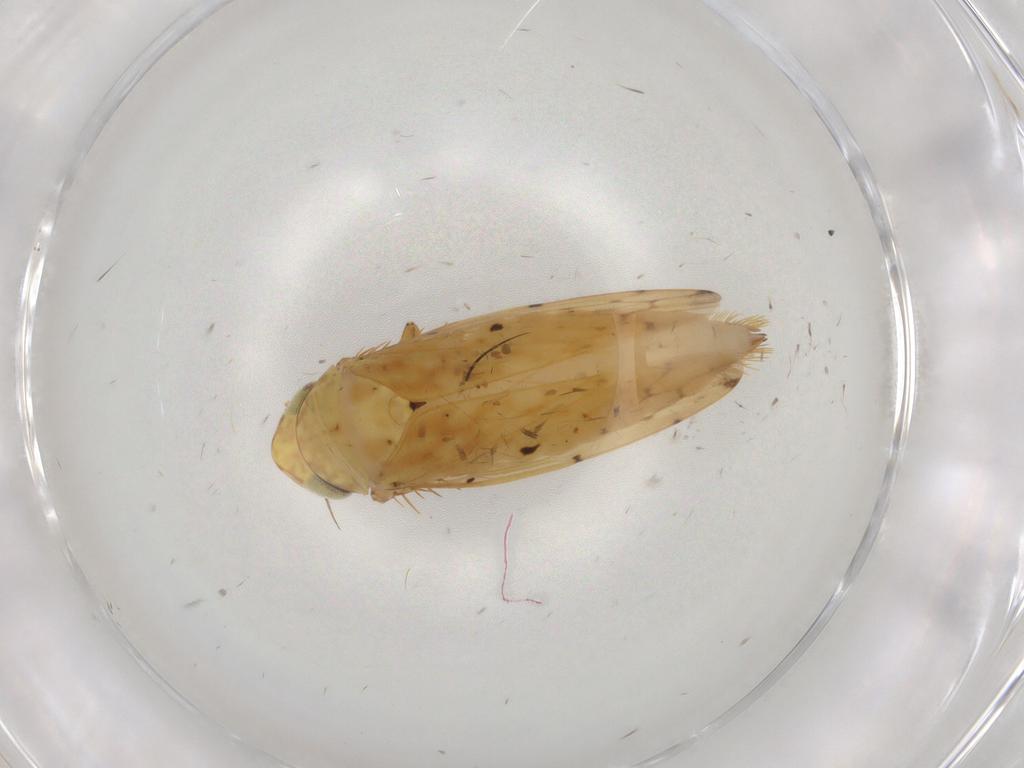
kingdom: Animalia
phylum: Arthropoda
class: Insecta
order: Hemiptera
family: Cicadellidae
